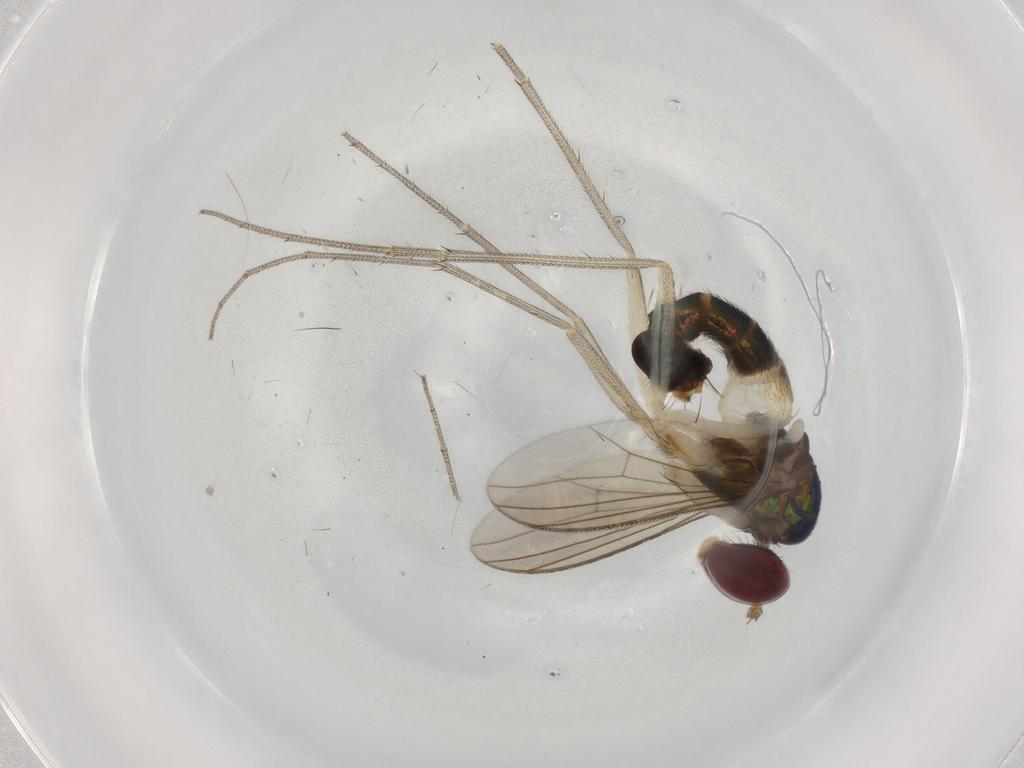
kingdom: Animalia
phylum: Arthropoda
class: Insecta
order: Diptera
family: Dolichopodidae
